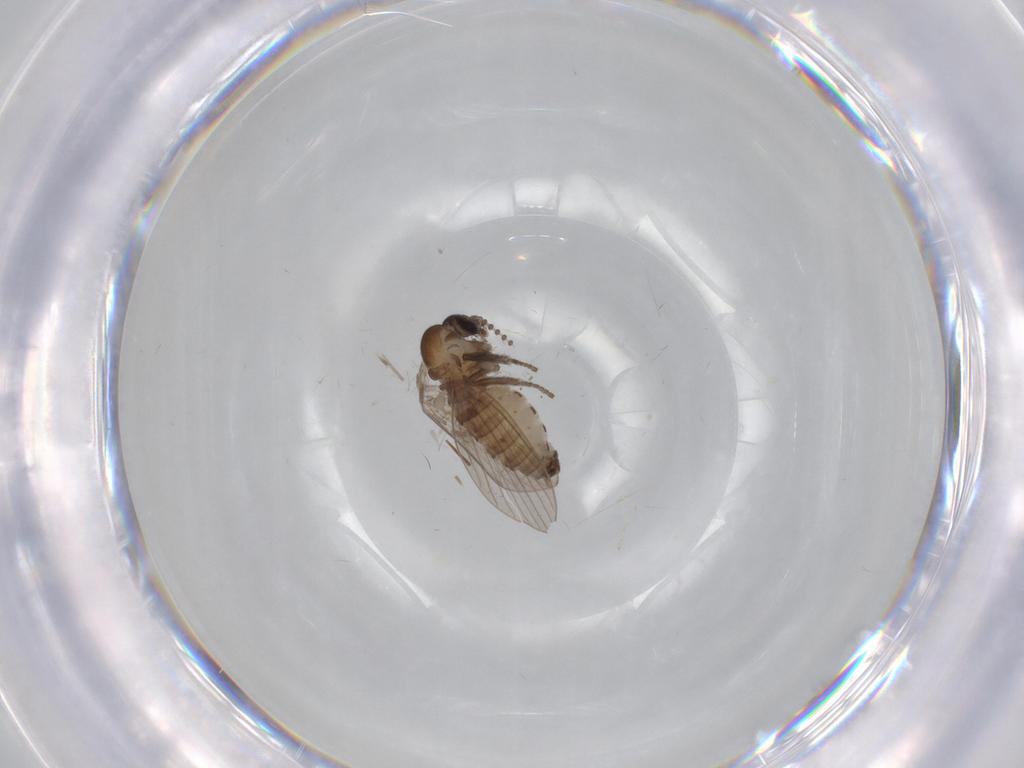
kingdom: Animalia
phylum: Arthropoda
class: Insecta
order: Diptera
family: Psychodidae
